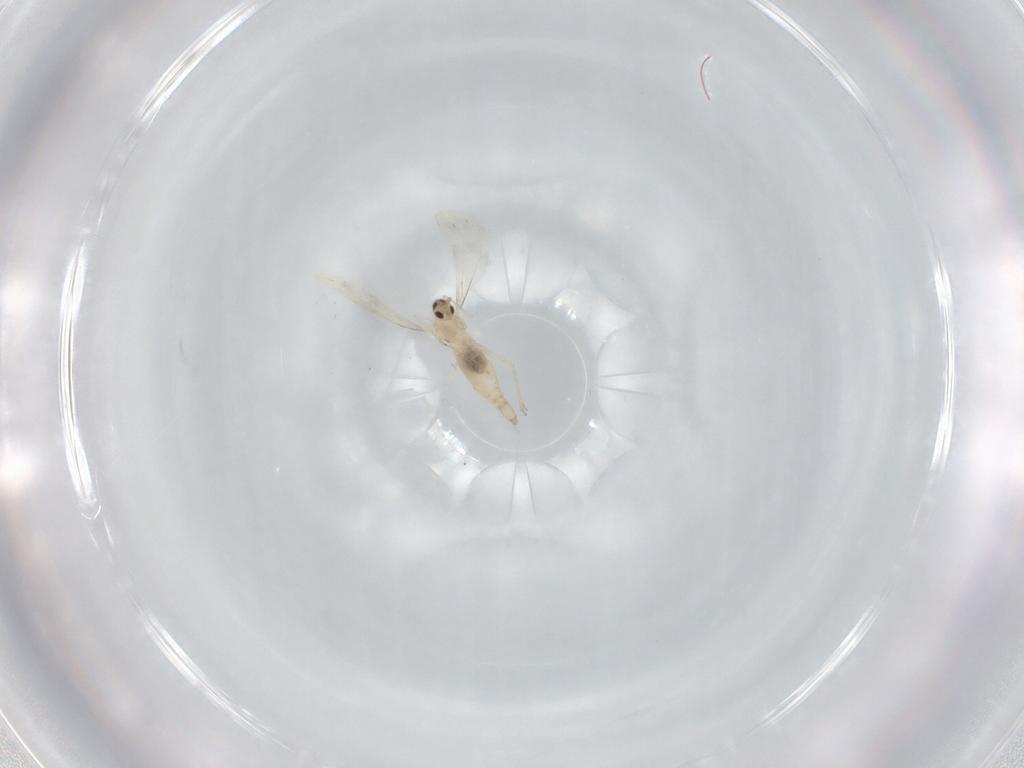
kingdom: Animalia
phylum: Arthropoda
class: Insecta
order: Diptera
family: Cecidomyiidae
